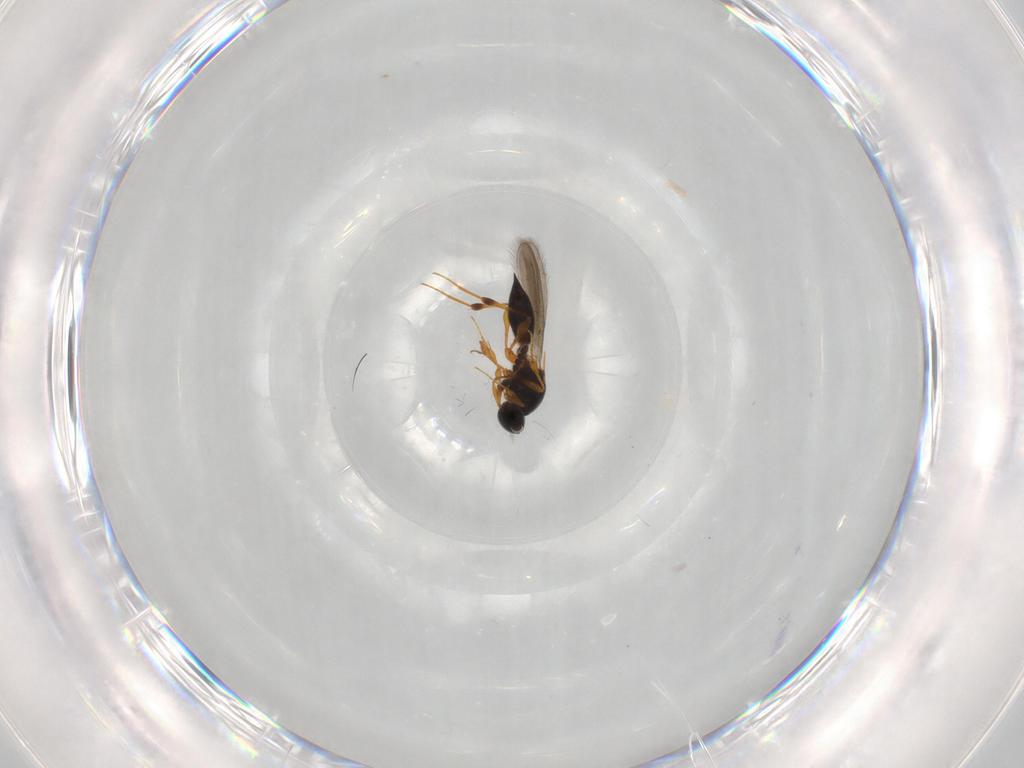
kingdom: Animalia
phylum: Arthropoda
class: Insecta
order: Hymenoptera
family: Platygastridae
